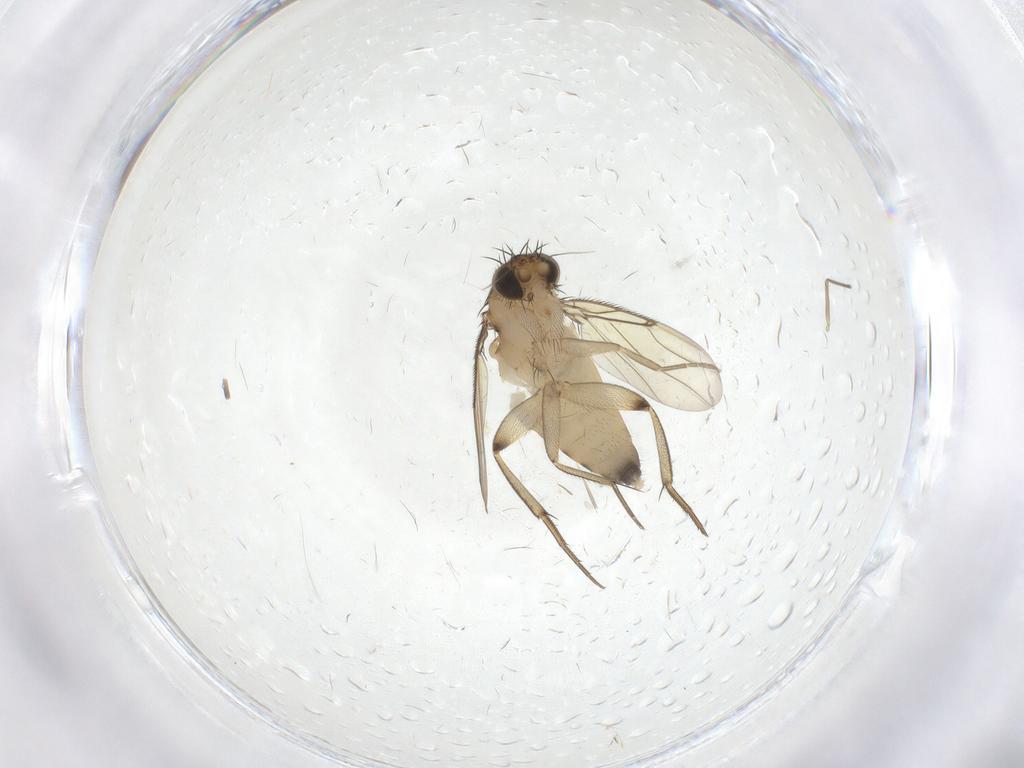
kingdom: Animalia
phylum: Arthropoda
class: Insecta
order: Diptera
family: Phoridae
